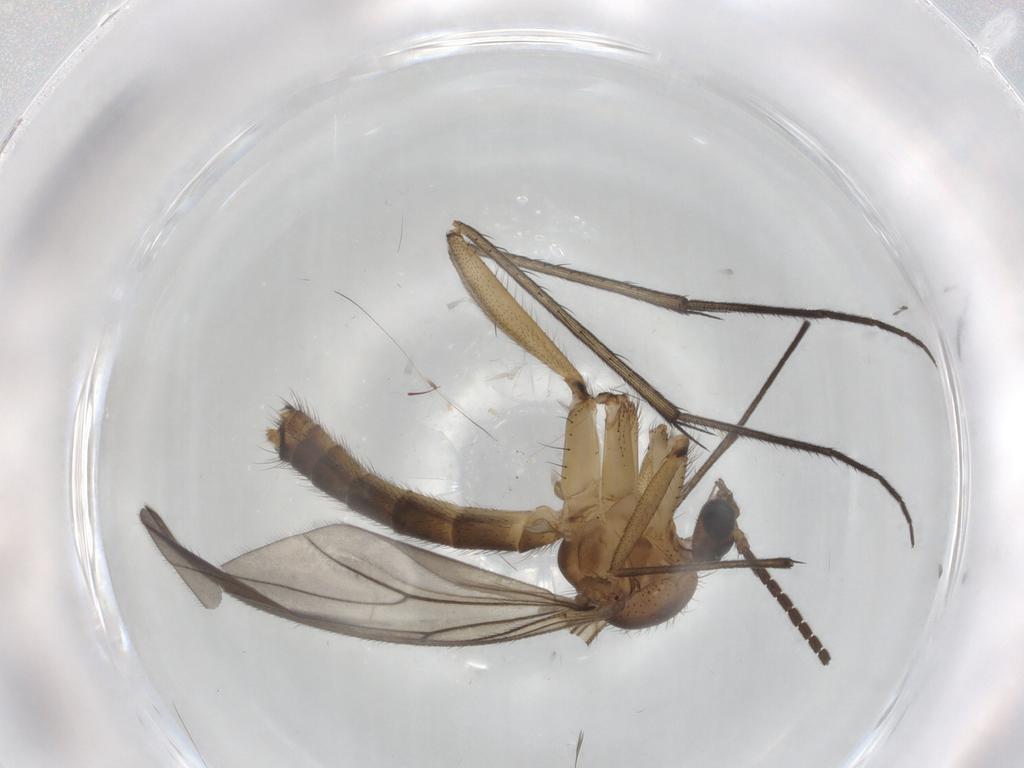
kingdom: Animalia
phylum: Arthropoda
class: Insecta
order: Diptera
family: Mycetophilidae
